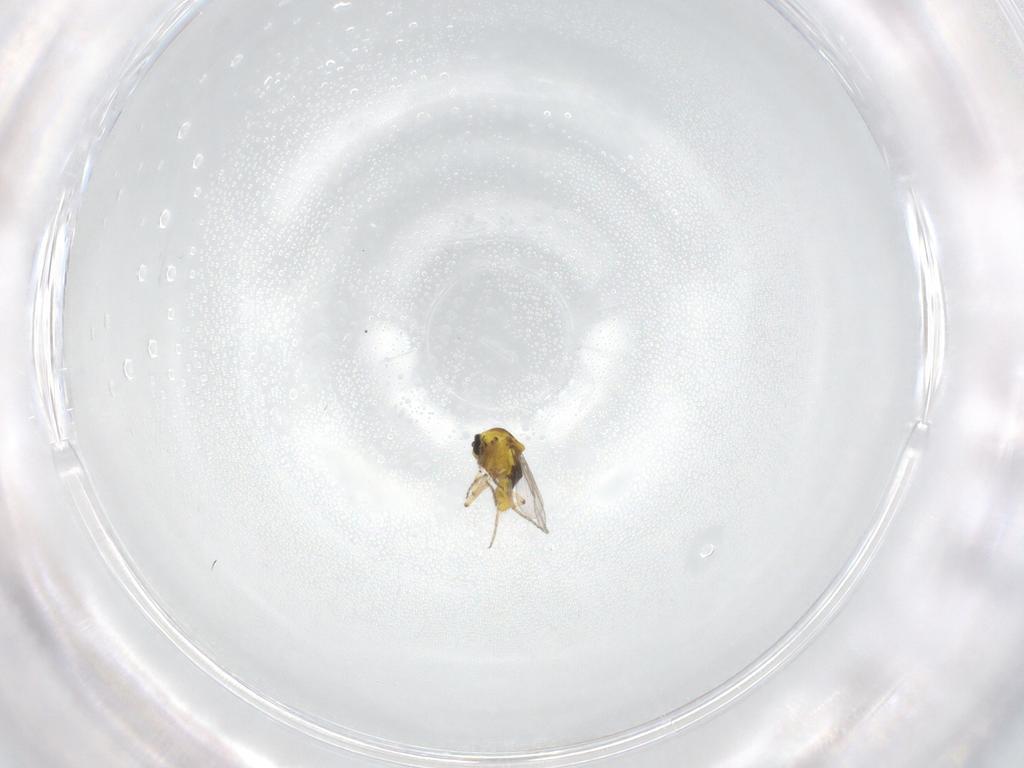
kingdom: Animalia
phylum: Arthropoda
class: Insecta
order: Diptera
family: Ceratopogonidae
